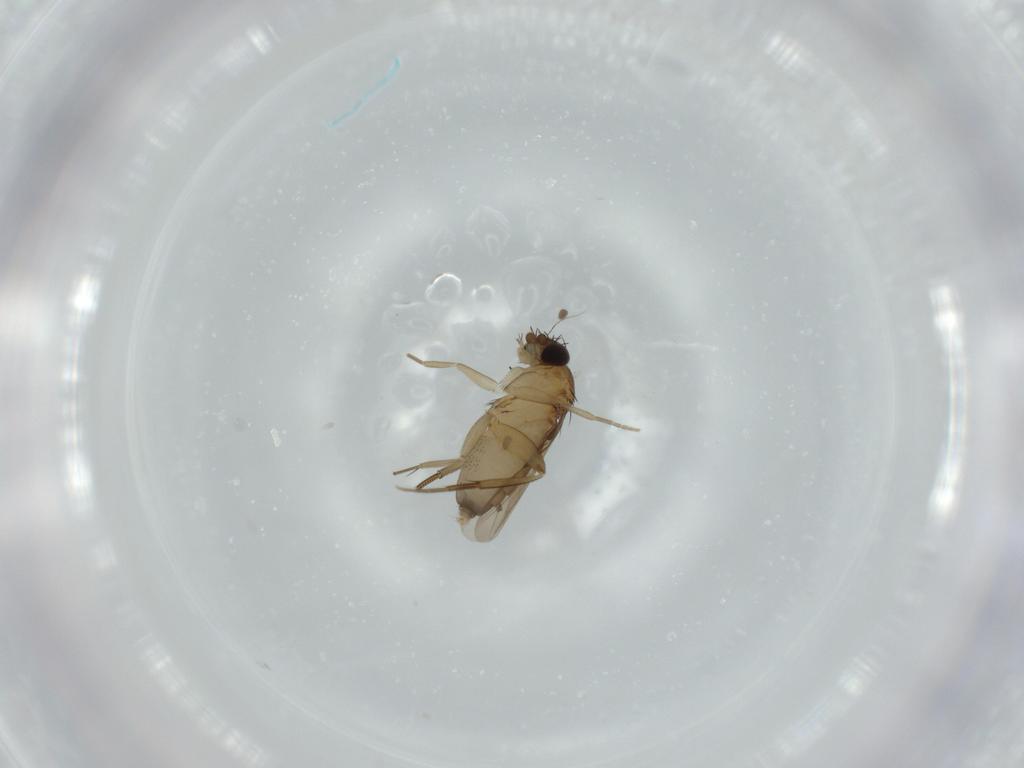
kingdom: Animalia
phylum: Arthropoda
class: Insecta
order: Diptera
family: Phoridae
